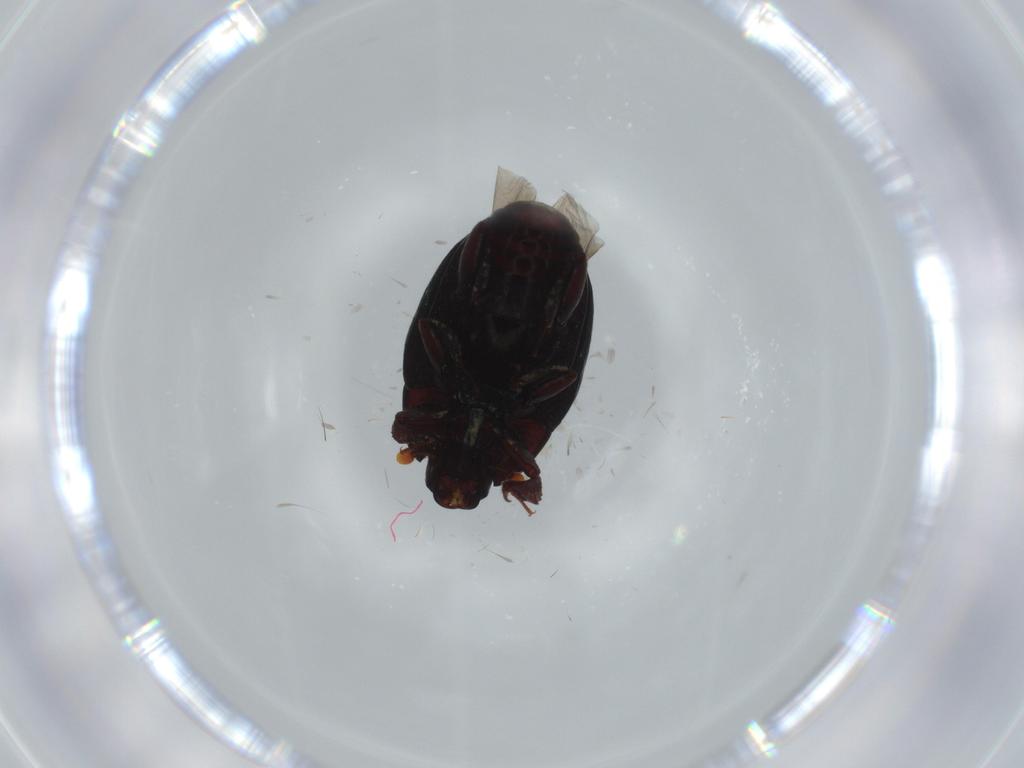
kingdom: Animalia
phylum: Arthropoda
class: Insecta
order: Coleoptera
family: Histeridae
